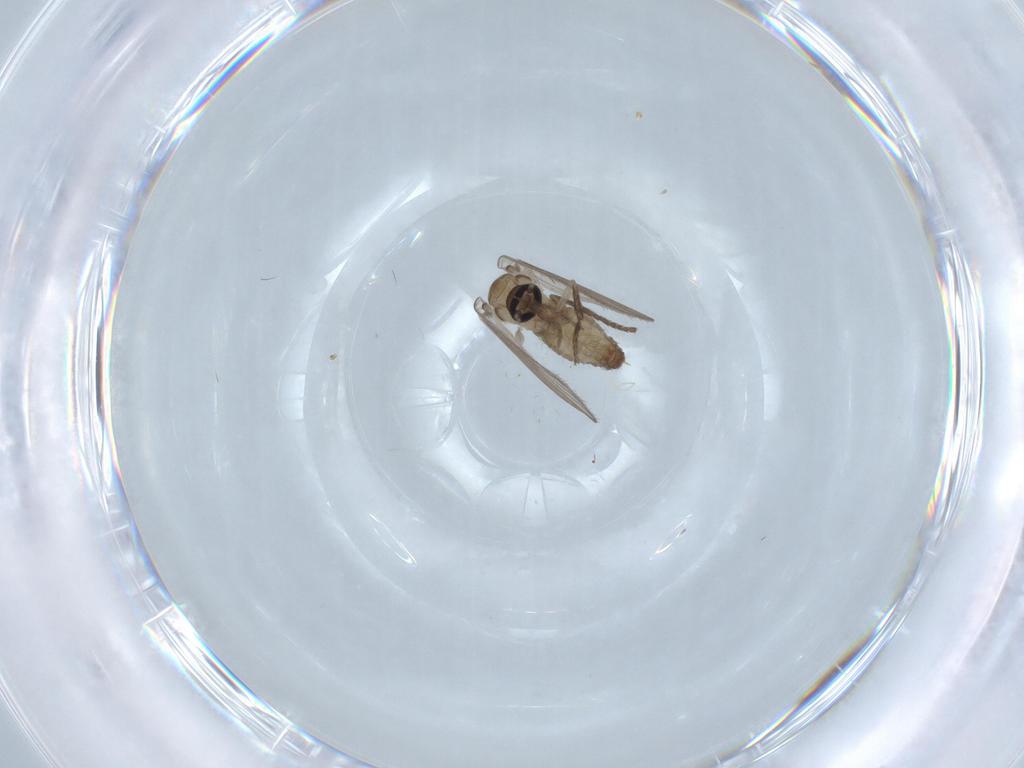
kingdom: Animalia
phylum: Arthropoda
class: Insecta
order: Diptera
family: Psychodidae
